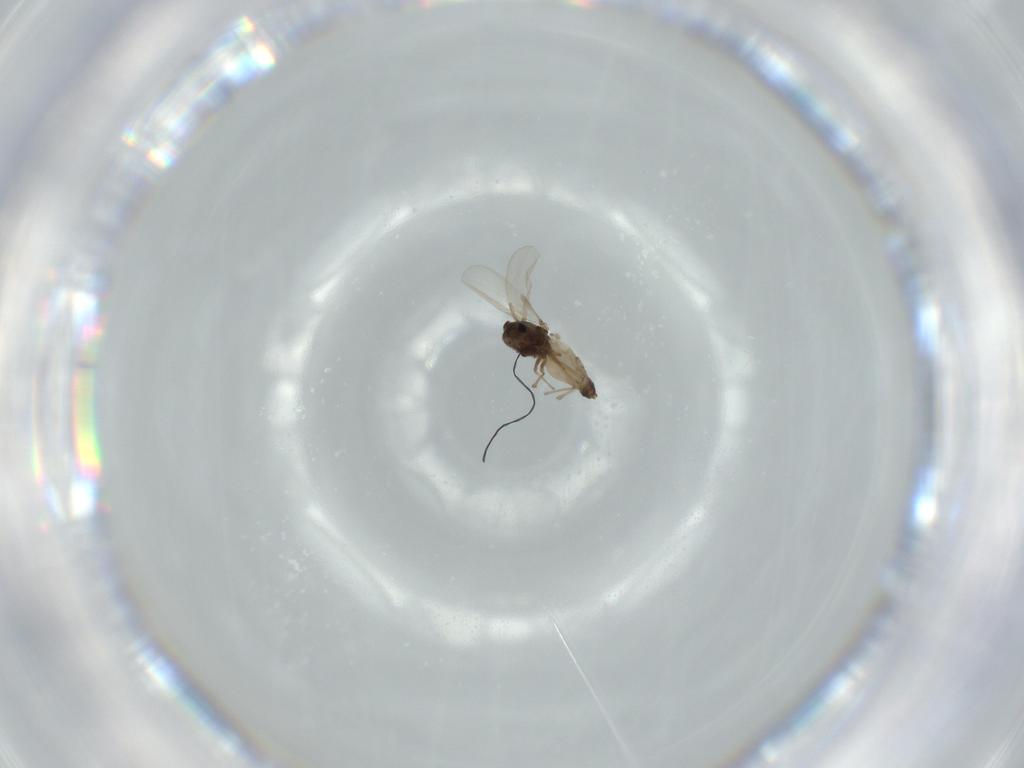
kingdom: Animalia
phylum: Arthropoda
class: Insecta
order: Diptera
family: Chironomidae
